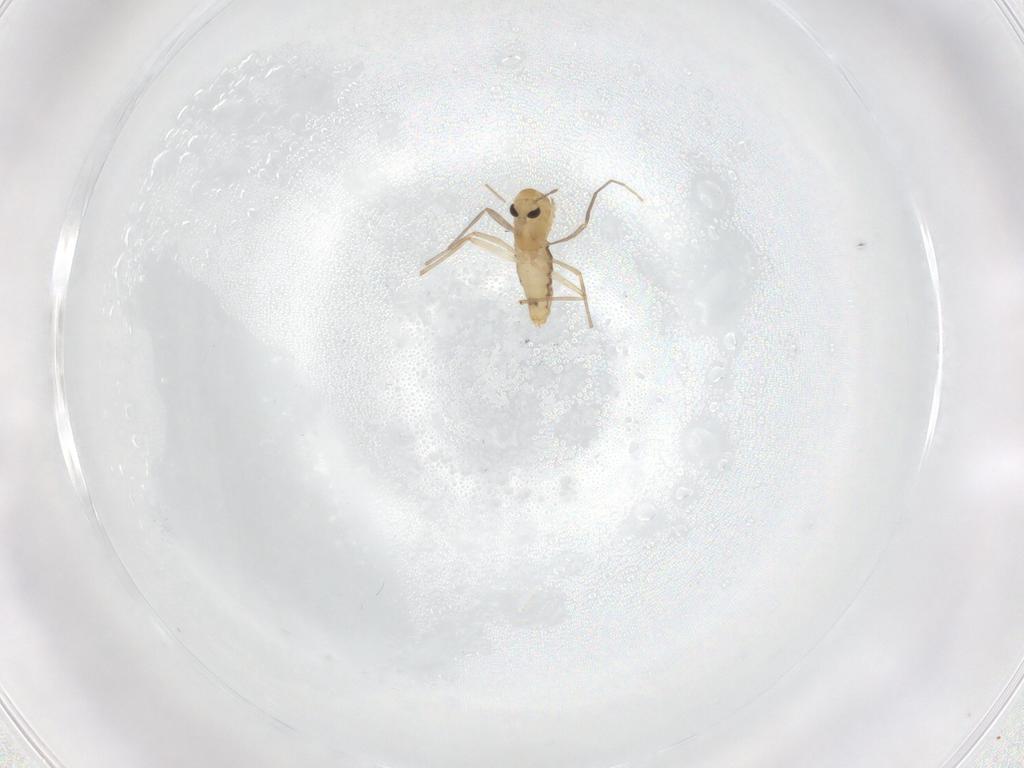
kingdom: Animalia
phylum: Arthropoda
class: Insecta
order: Diptera
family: Chironomidae
